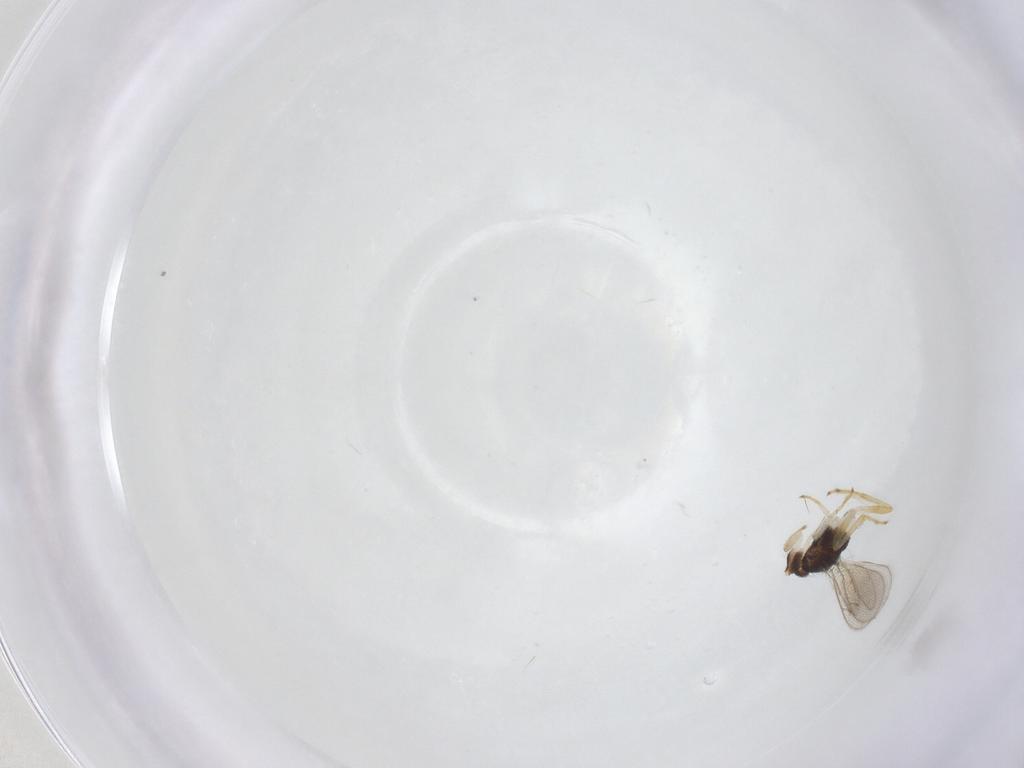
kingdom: Animalia
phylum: Arthropoda
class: Insecta
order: Hymenoptera
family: Eulophidae
